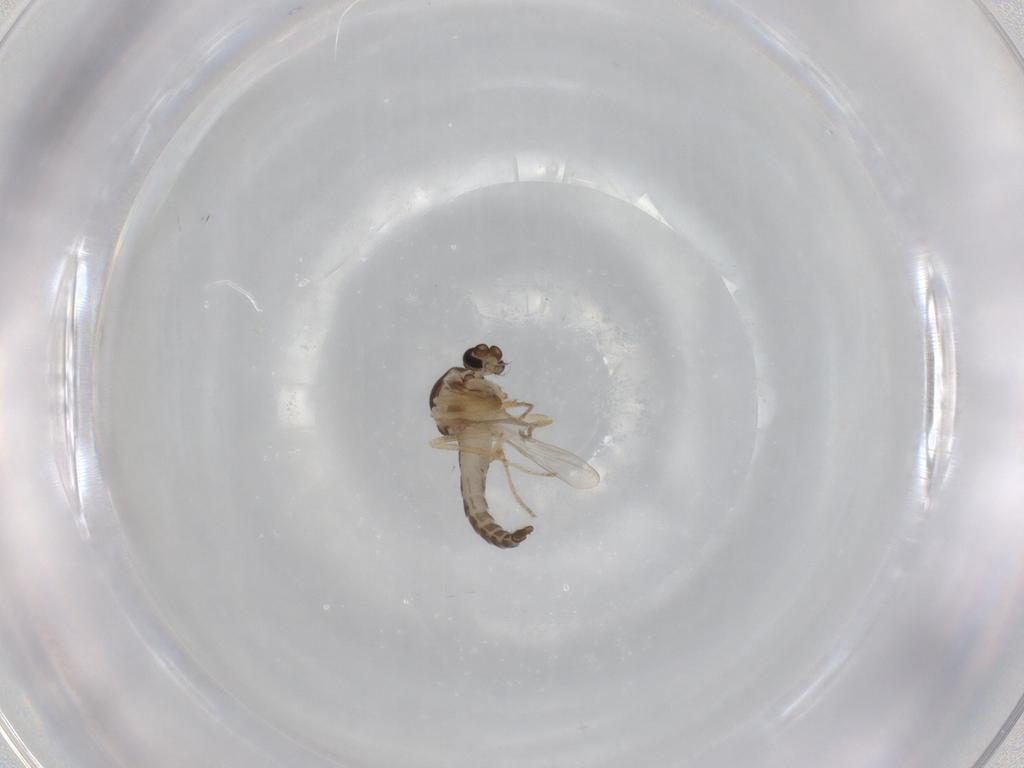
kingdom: Animalia
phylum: Arthropoda
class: Insecta
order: Diptera
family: Ceratopogonidae
